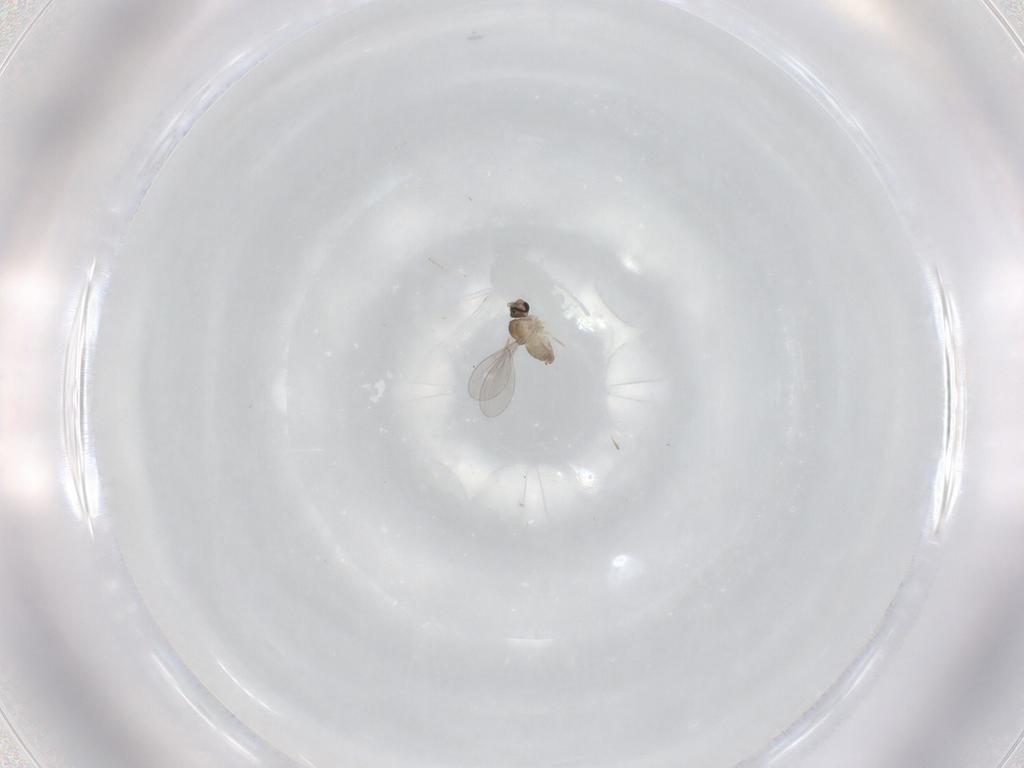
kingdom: Animalia
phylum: Arthropoda
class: Insecta
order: Diptera
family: Cecidomyiidae
